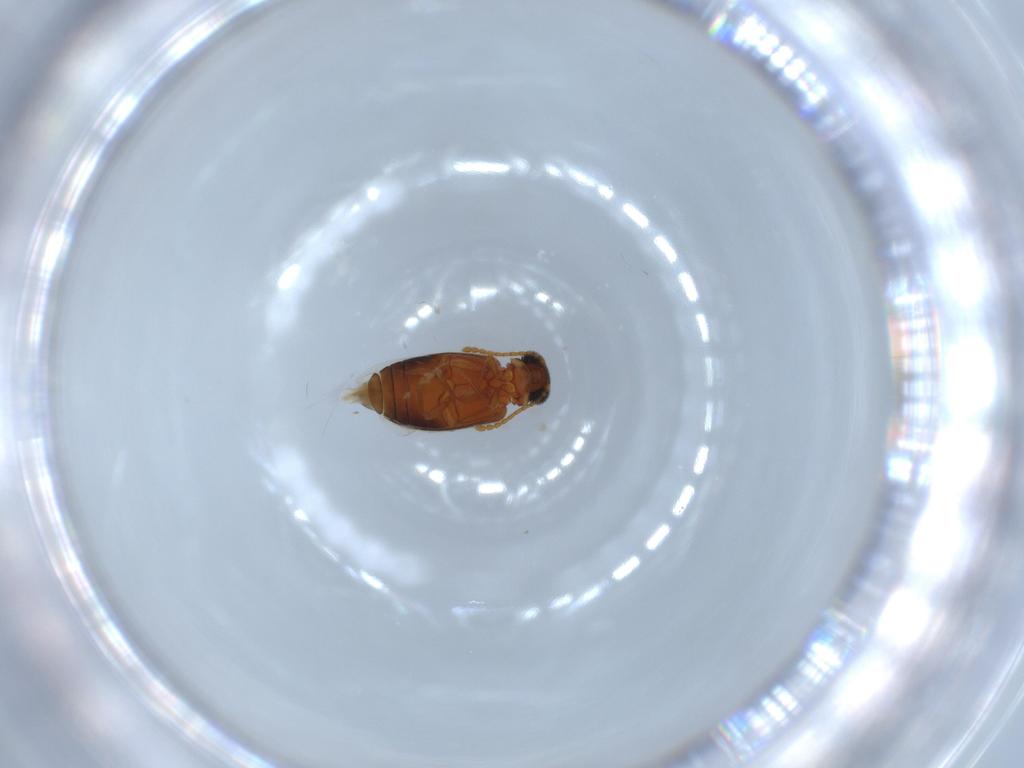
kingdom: Animalia
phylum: Arthropoda
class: Insecta
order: Coleoptera
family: Aderidae
